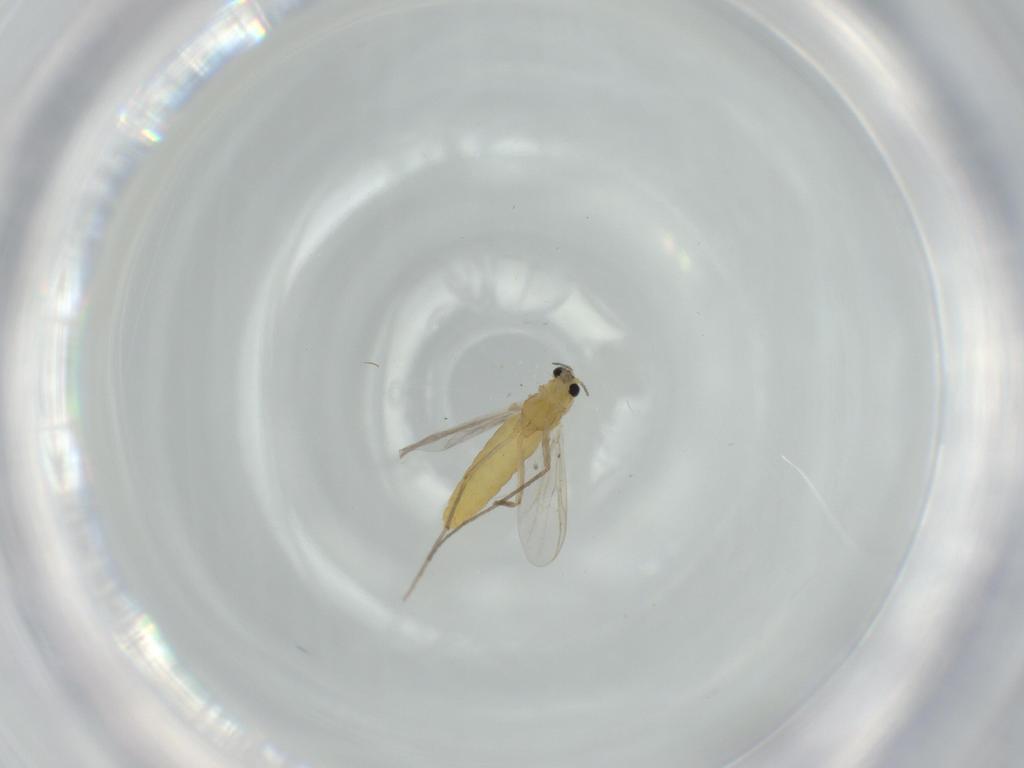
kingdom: Animalia
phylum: Arthropoda
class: Insecta
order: Diptera
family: Chironomidae
